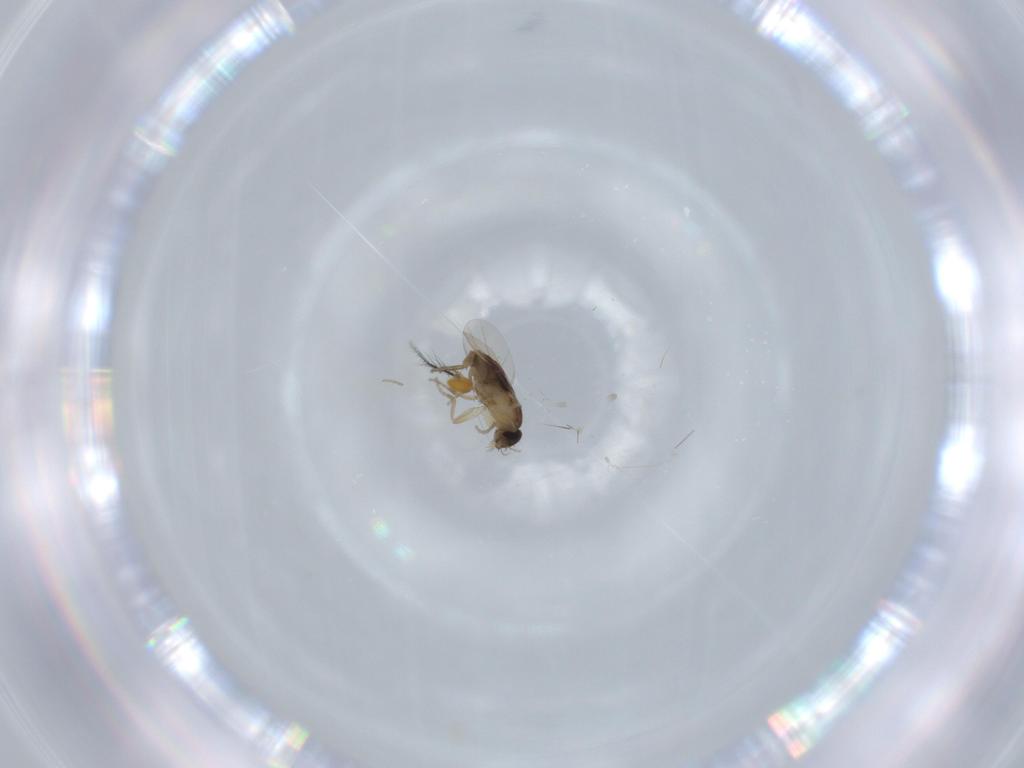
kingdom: Animalia
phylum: Arthropoda
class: Insecta
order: Diptera
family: Phoridae
